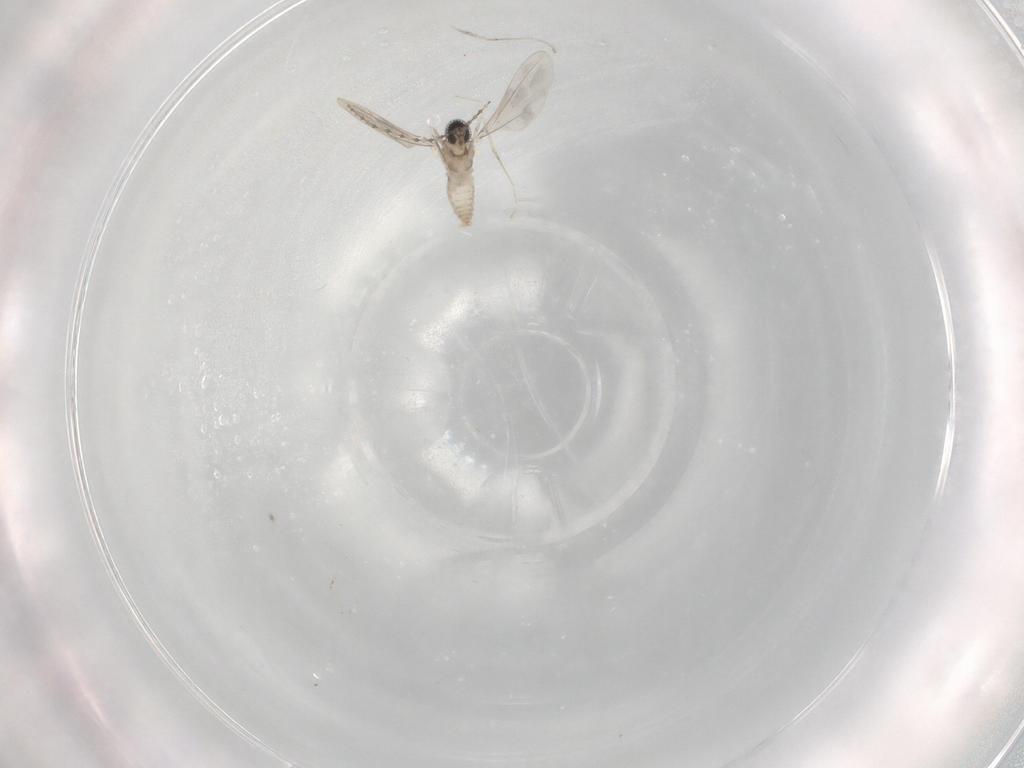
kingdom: Animalia
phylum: Arthropoda
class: Insecta
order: Diptera
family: Cecidomyiidae
